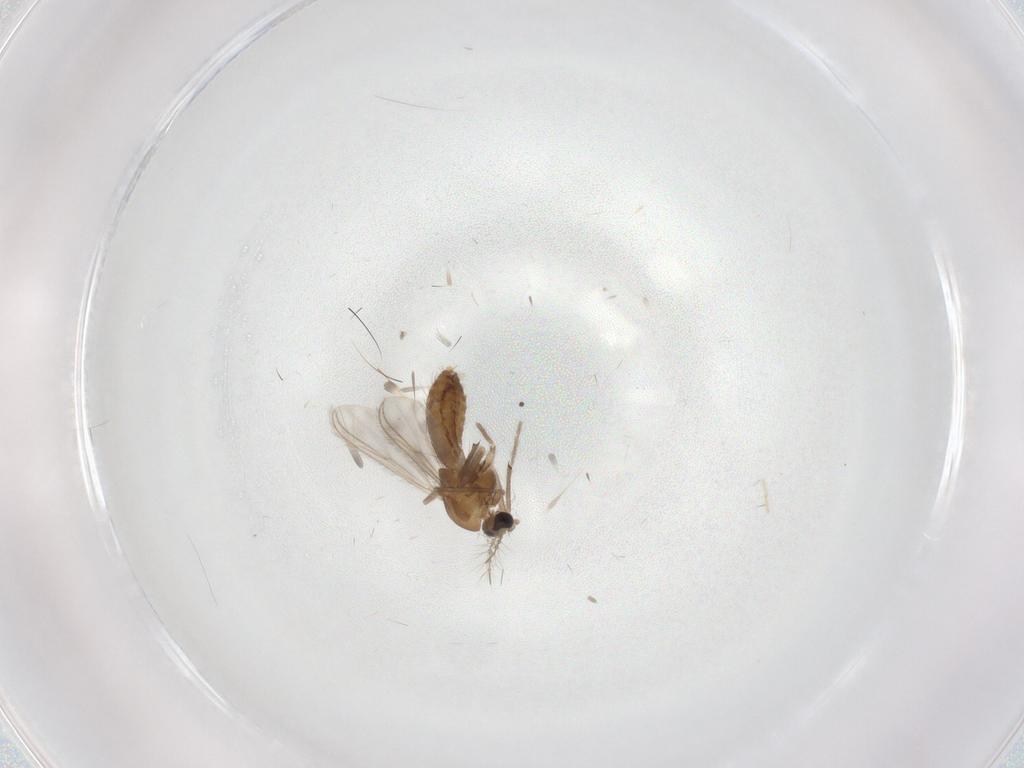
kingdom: Animalia
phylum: Arthropoda
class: Insecta
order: Diptera
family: Chironomidae
